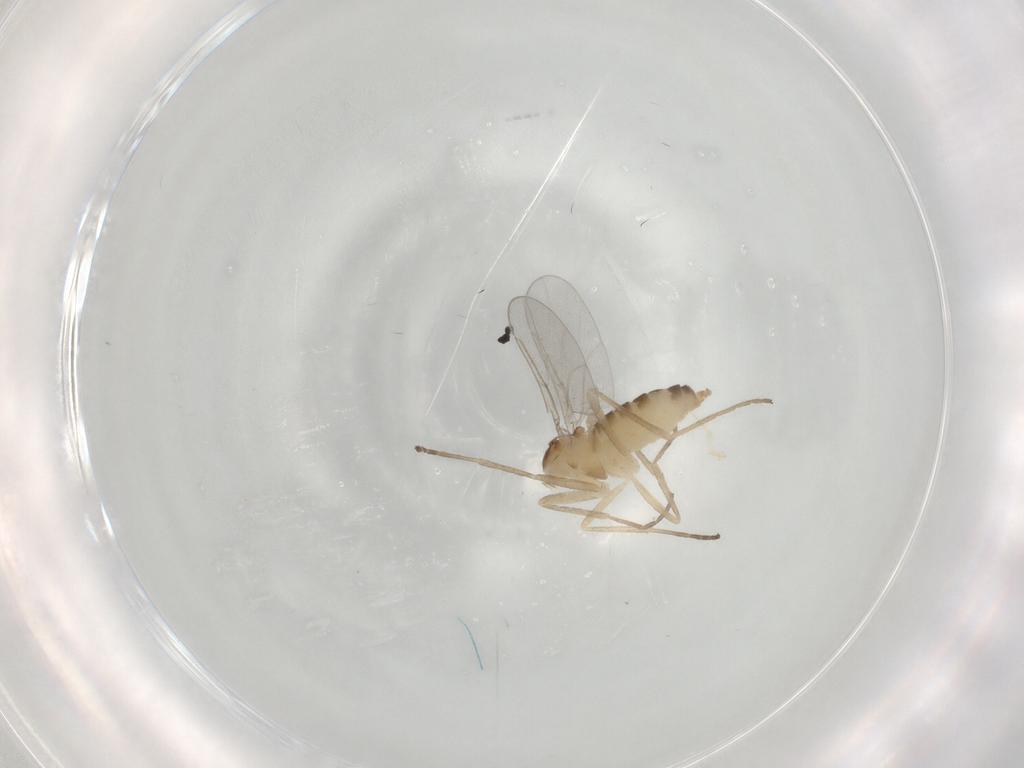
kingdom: Animalia
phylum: Arthropoda
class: Insecta
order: Diptera
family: Cecidomyiidae
